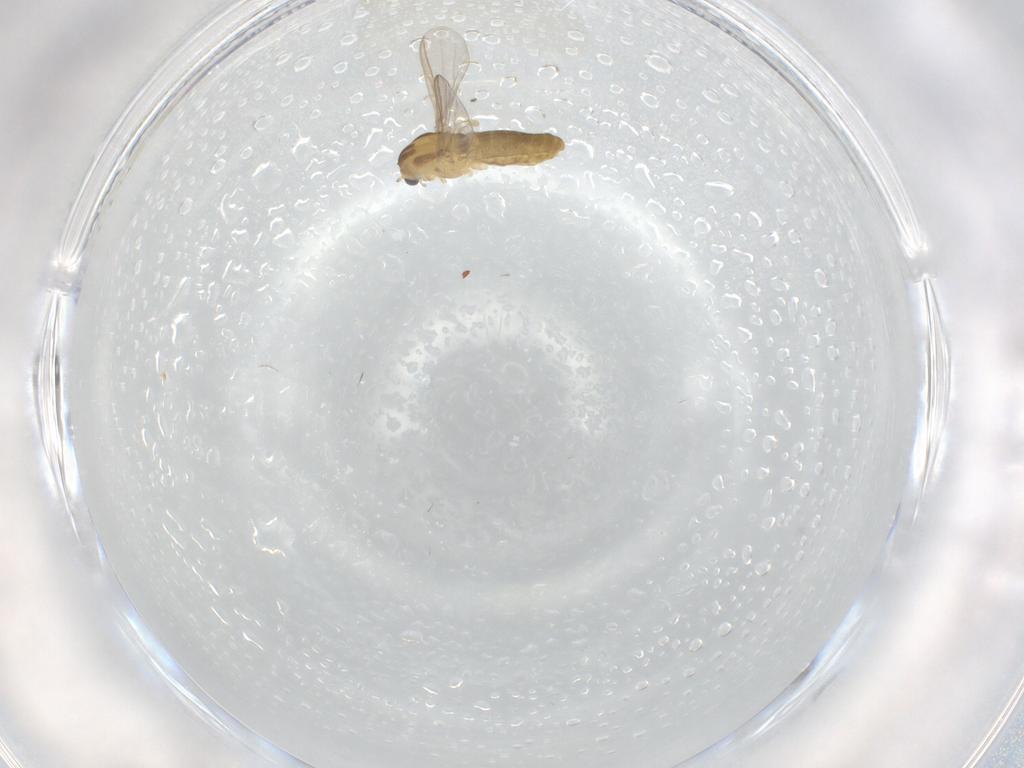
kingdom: Animalia
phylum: Arthropoda
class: Insecta
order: Diptera
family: Chironomidae
